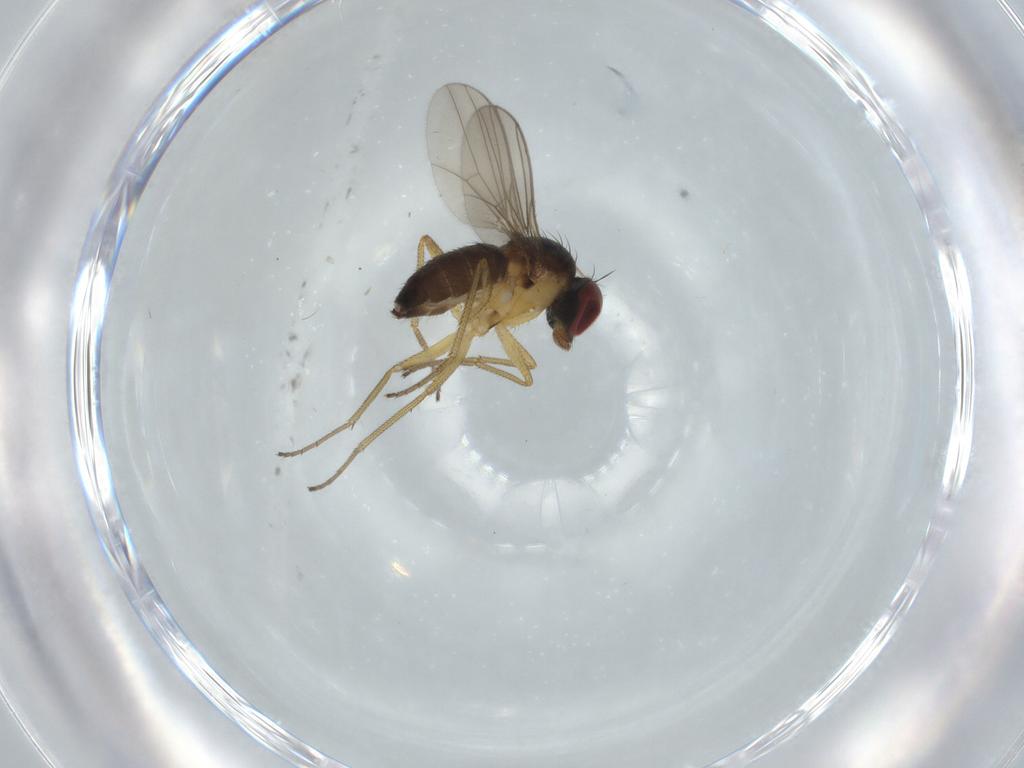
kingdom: Animalia
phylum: Arthropoda
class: Insecta
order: Diptera
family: Dolichopodidae
